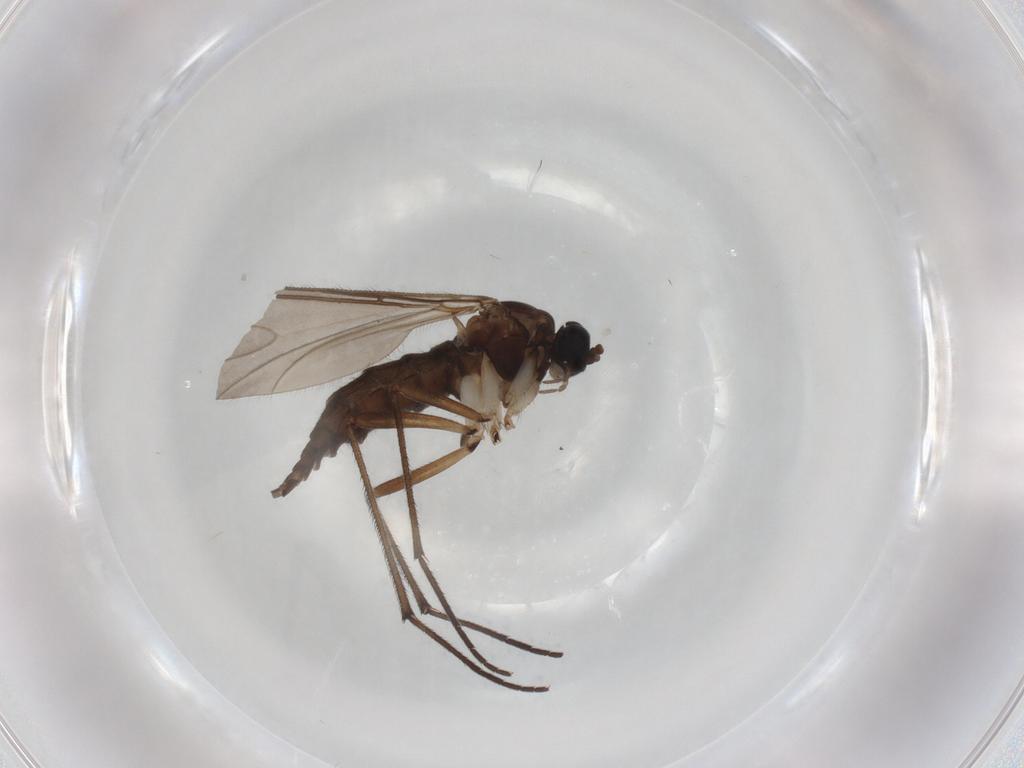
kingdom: Animalia
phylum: Arthropoda
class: Insecta
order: Diptera
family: Sciaridae
